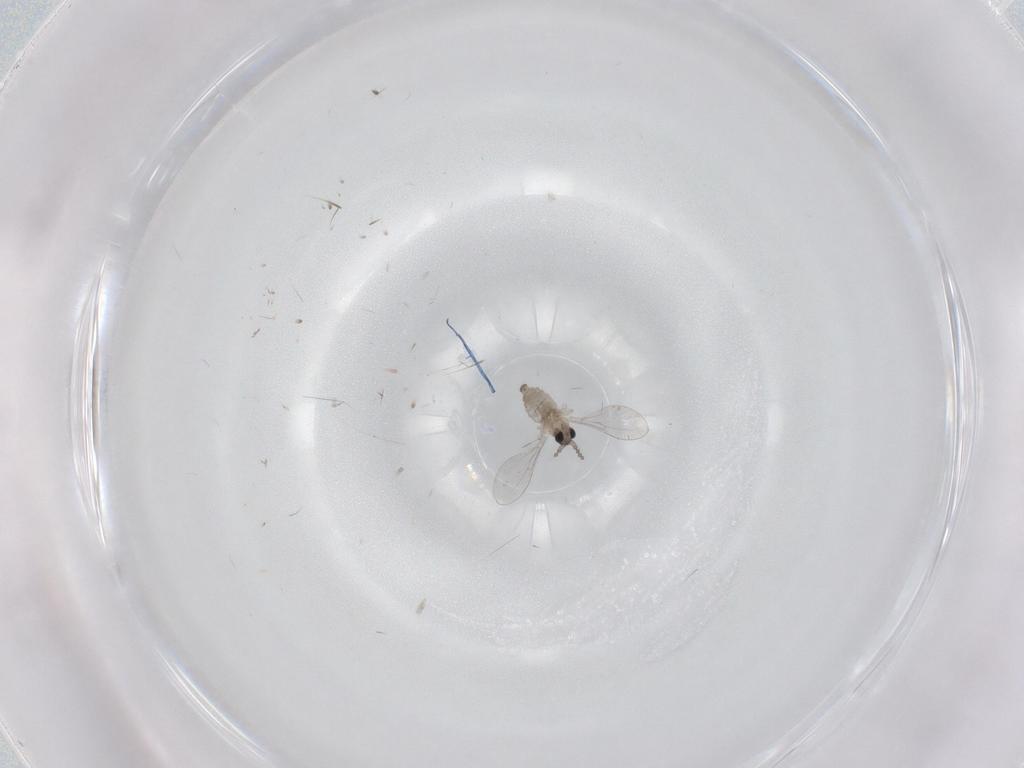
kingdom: Animalia
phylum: Arthropoda
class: Insecta
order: Diptera
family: Cecidomyiidae
